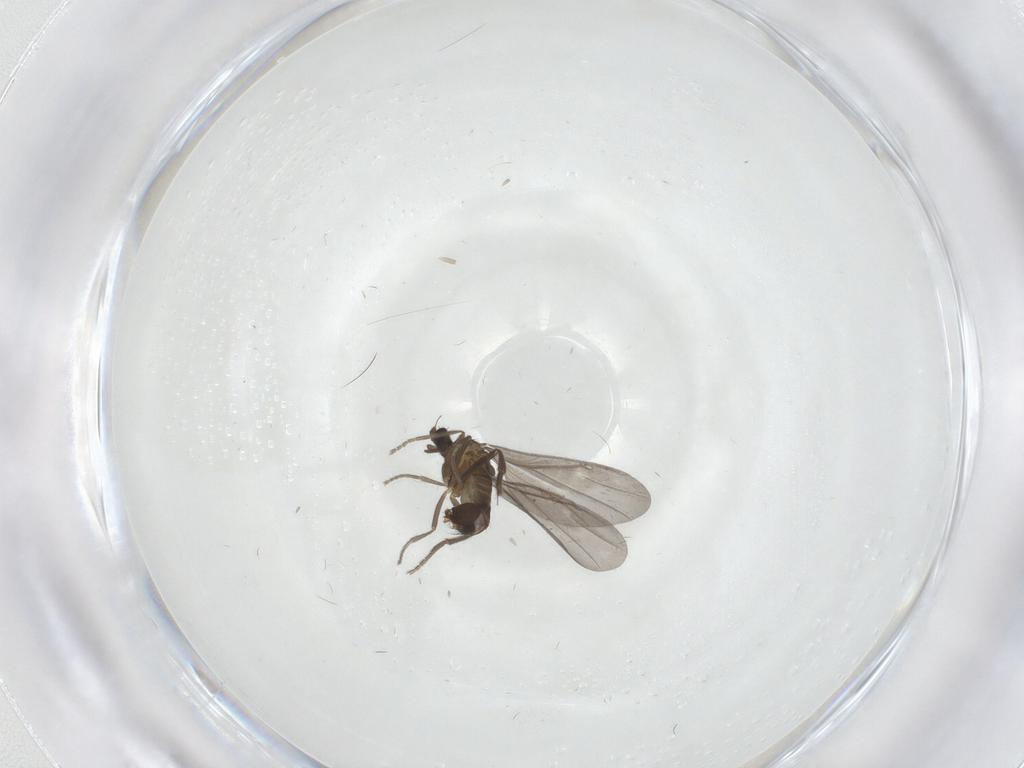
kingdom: Animalia
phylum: Arthropoda
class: Insecta
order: Diptera
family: Phoridae
